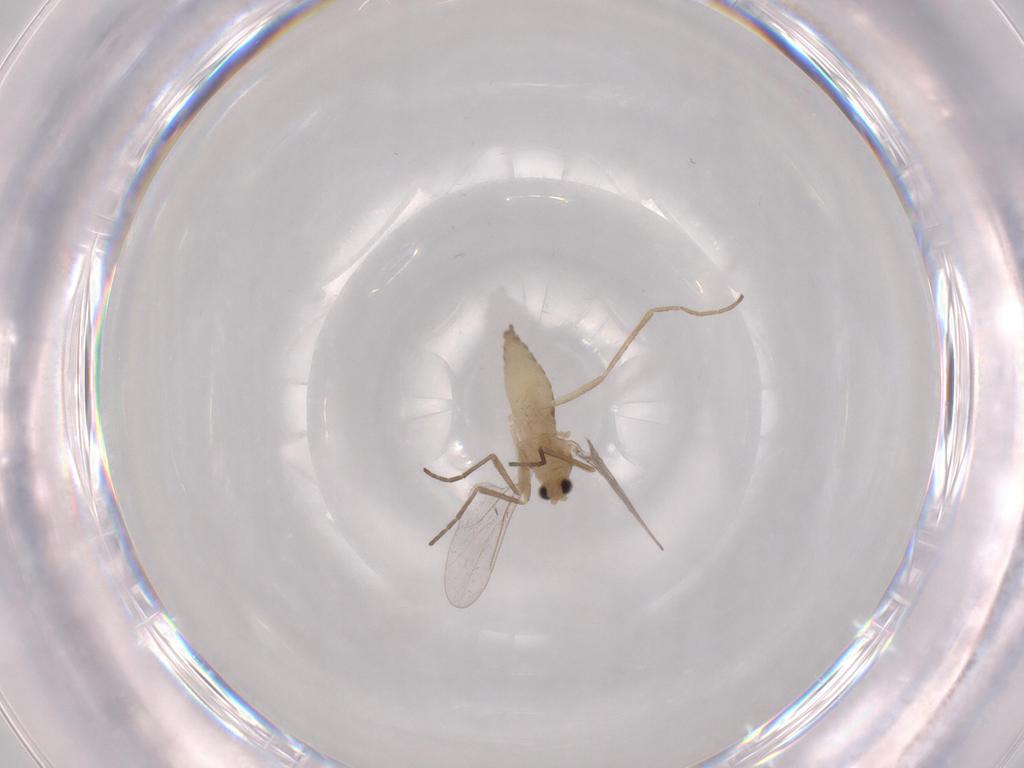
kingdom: Animalia
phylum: Arthropoda
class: Insecta
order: Diptera
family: Cecidomyiidae
